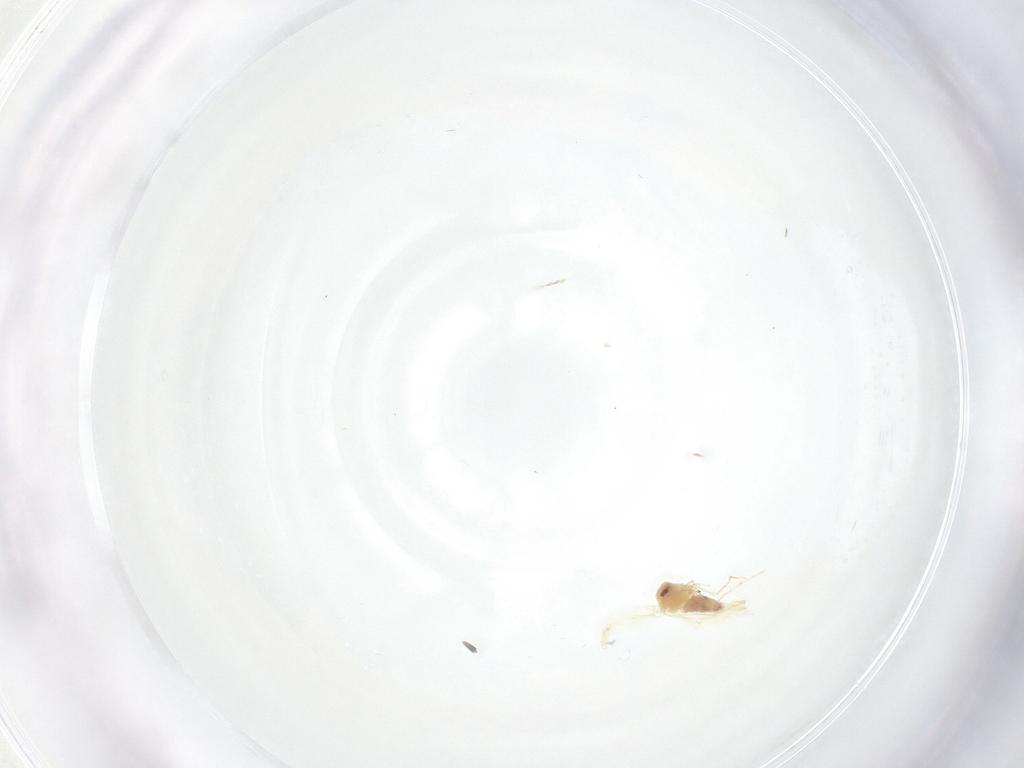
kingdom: Animalia
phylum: Arthropoda
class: Insecta
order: Hemiptera
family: Aleyrodidae
